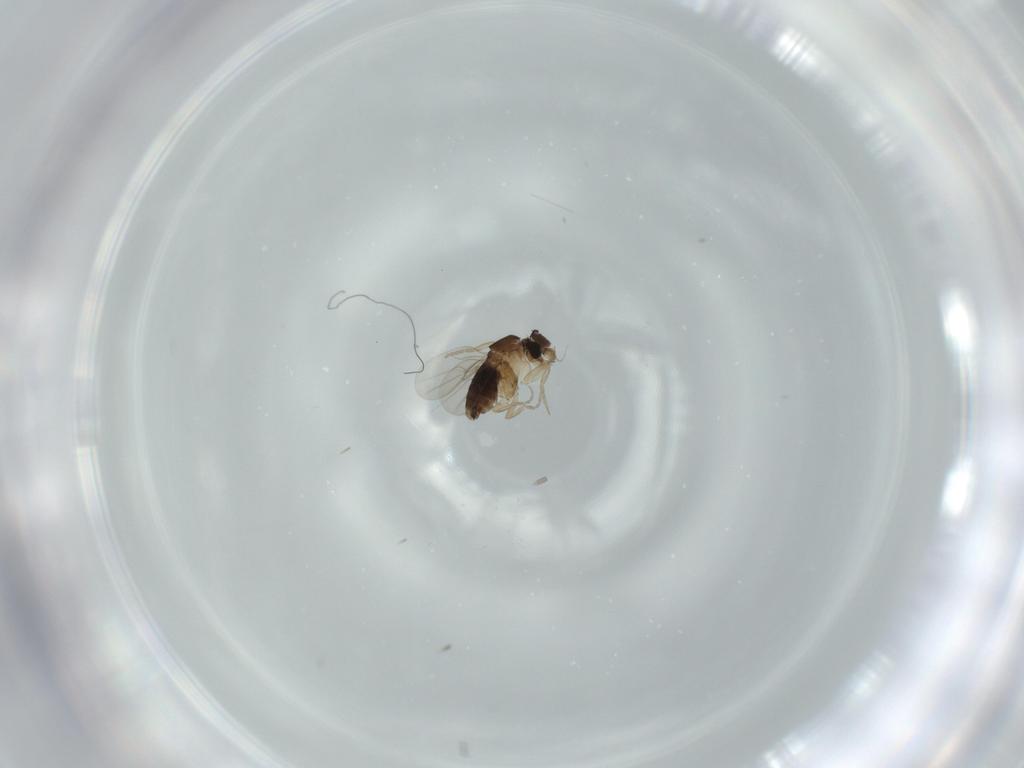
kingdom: Animalia
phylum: Arthropoda
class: Insecta
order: Diptera
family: Phoridae
